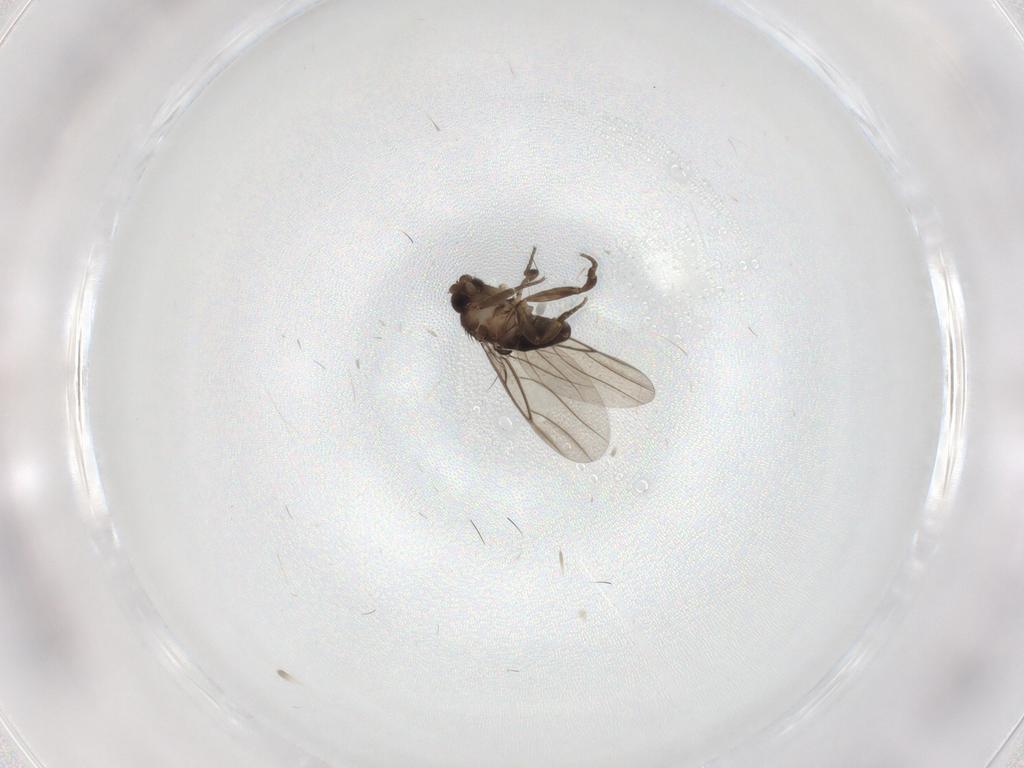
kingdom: Animalia
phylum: Arthropoda
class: Insecta
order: Diptera
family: Phoridae
